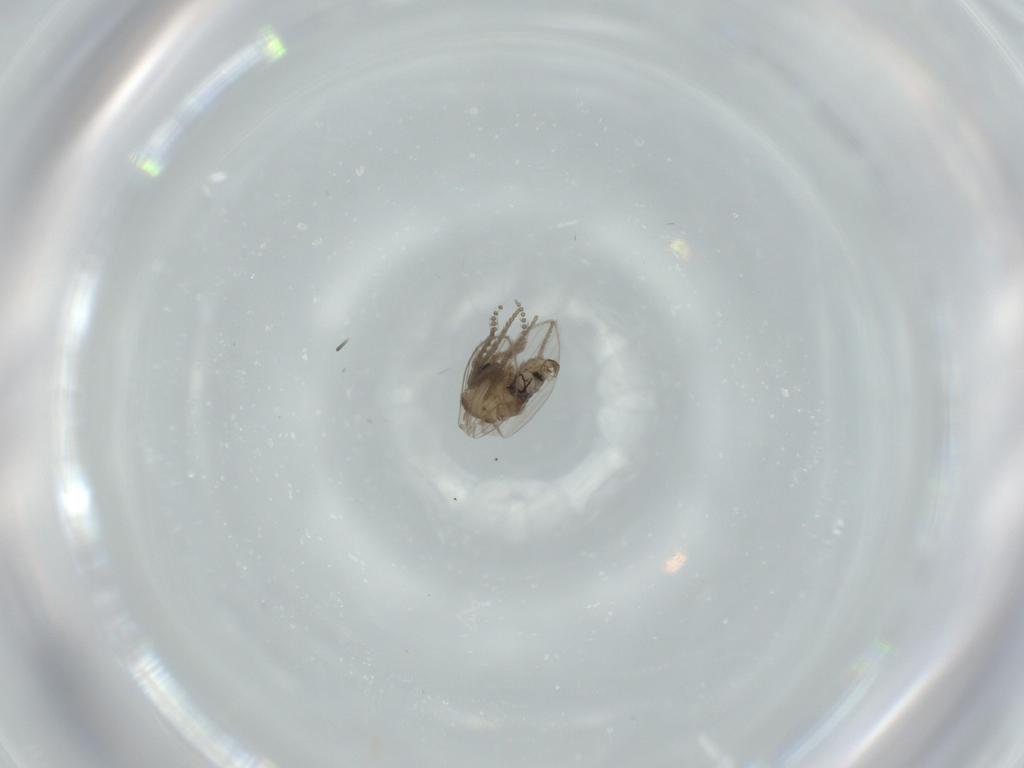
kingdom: Animalia
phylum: Arthropoda
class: Insecta
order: Diptera
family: Psychodidae
